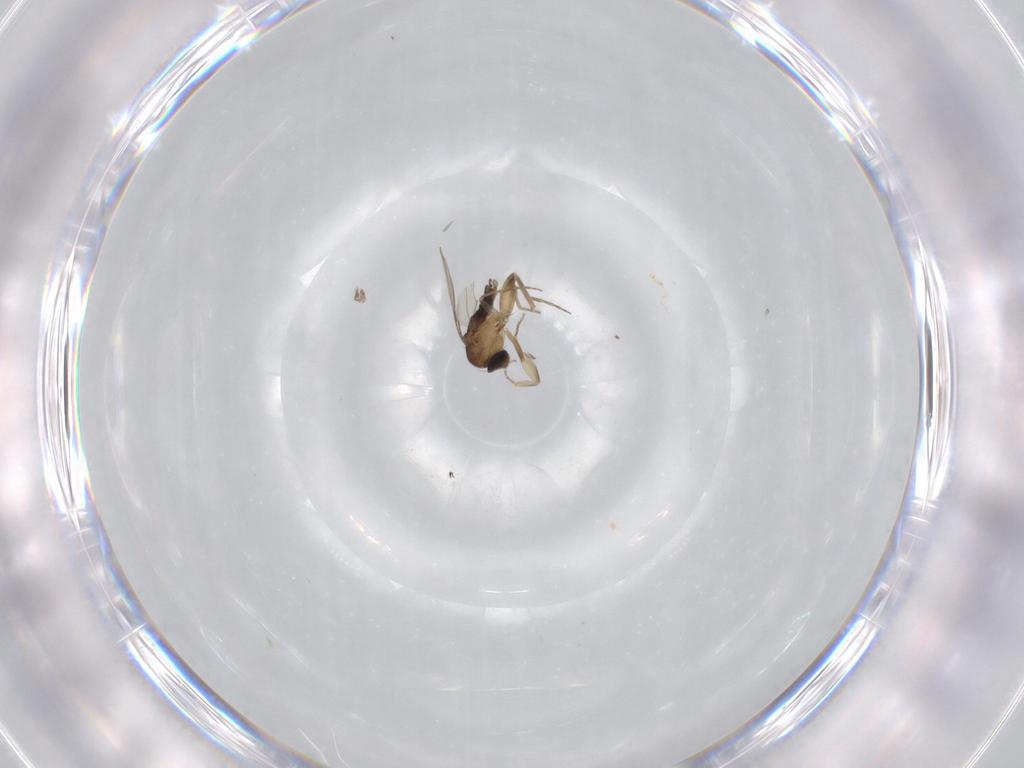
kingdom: Animalia
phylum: Arthropoda
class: Insecta
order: Diptera
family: Phoridae
